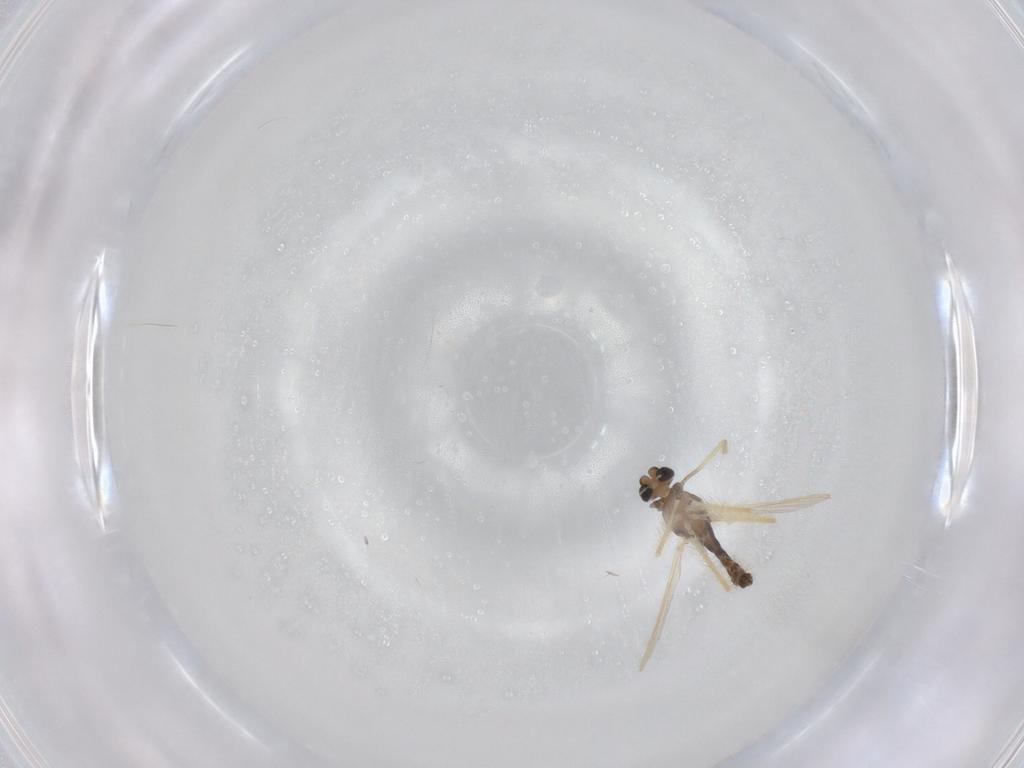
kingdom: Animalia
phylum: Arthropoda
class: Insecta
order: Diptera
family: Chironomidae
